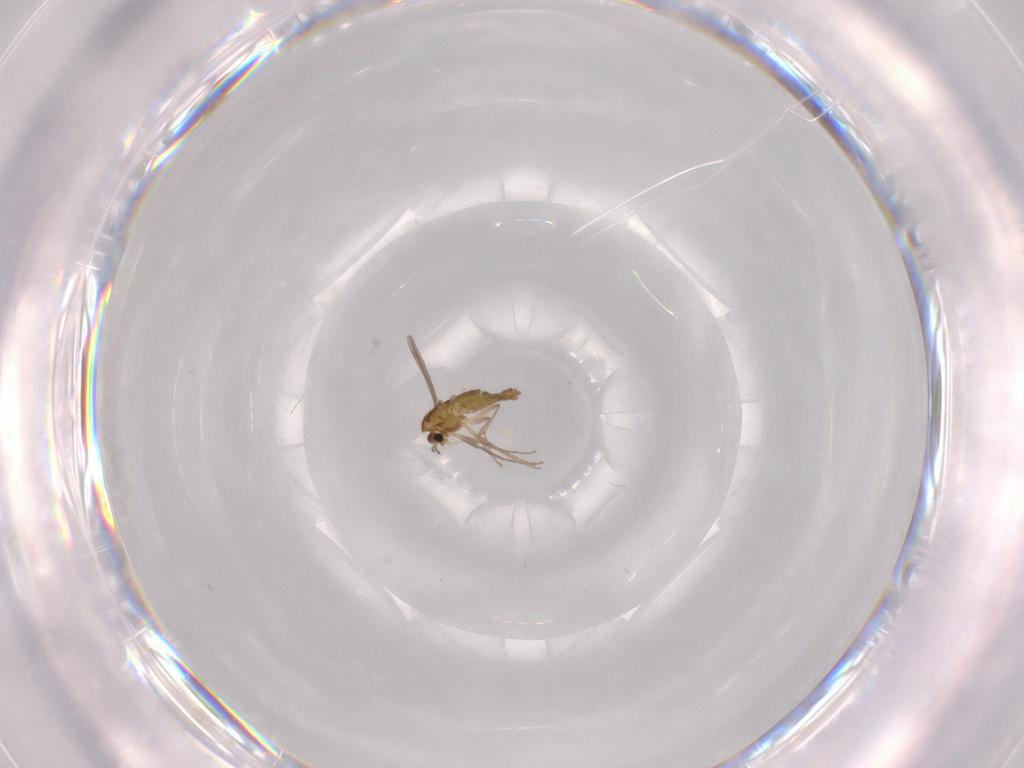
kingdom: Animalia
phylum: Arthropoda
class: Insecta
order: Diptera
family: Chironomidae
